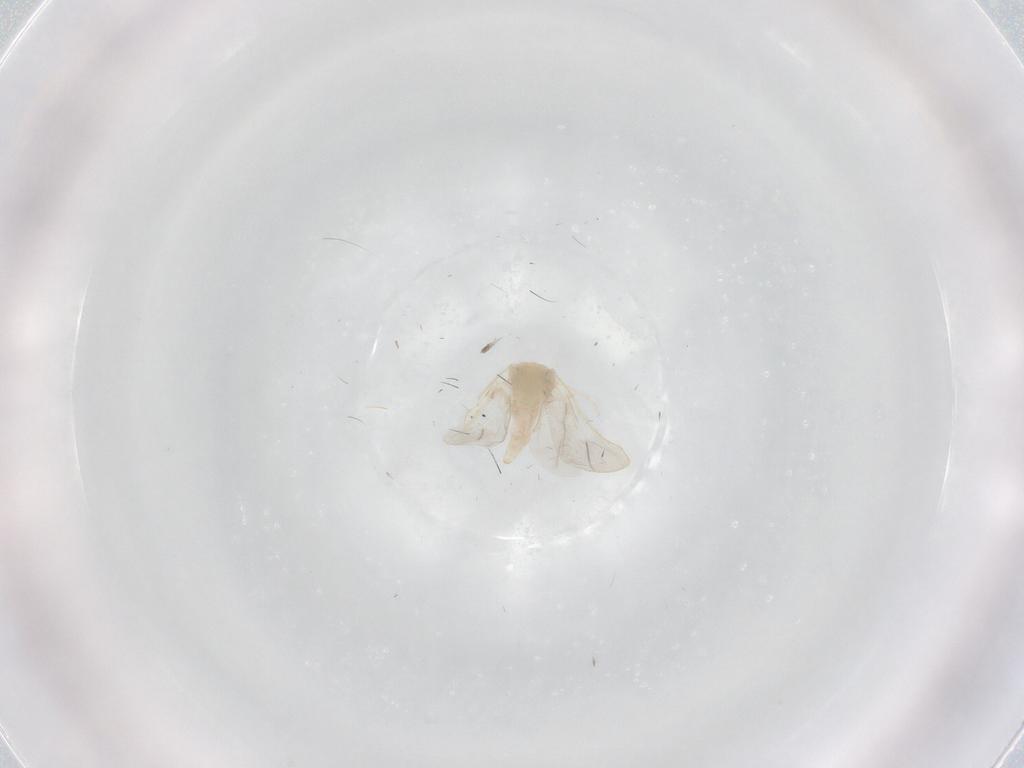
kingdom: Animalia
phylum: Arthropoda
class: Insecta
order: Hemiptera
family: Aleyrodidae
